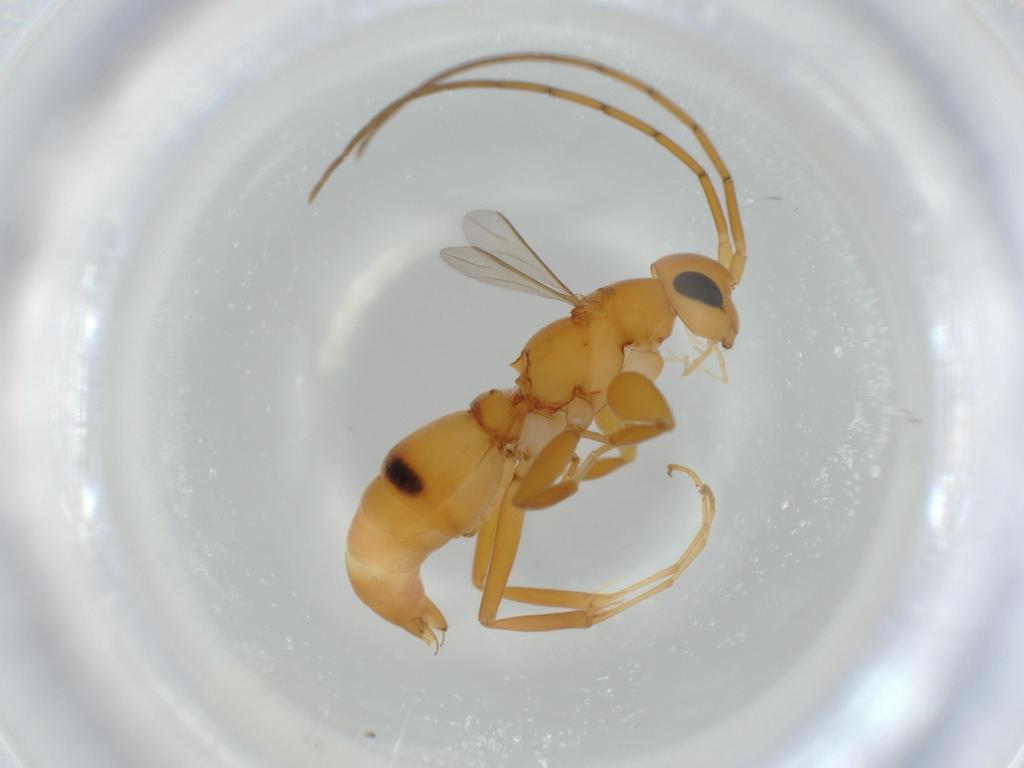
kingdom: Animalia
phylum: Arthropoda
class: Insecta
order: Hymenoptera
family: Rhopalosomatidae
